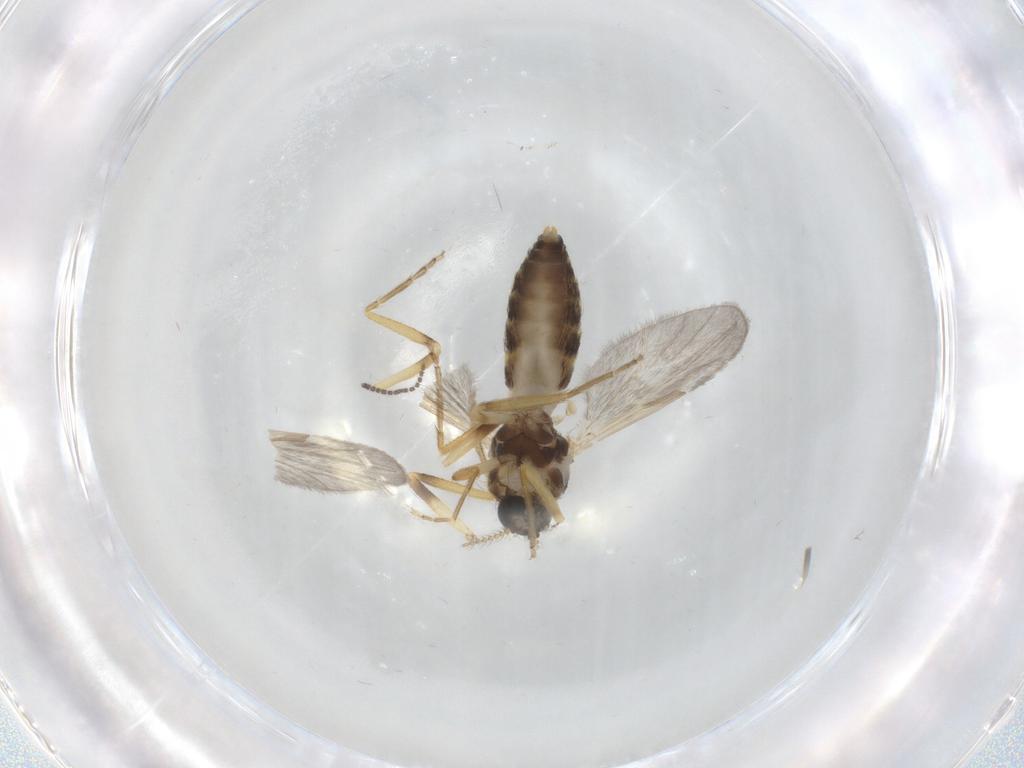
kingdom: Animalia
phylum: Arthropoda
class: Insecta
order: Diptera
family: Ceratopogonidae
